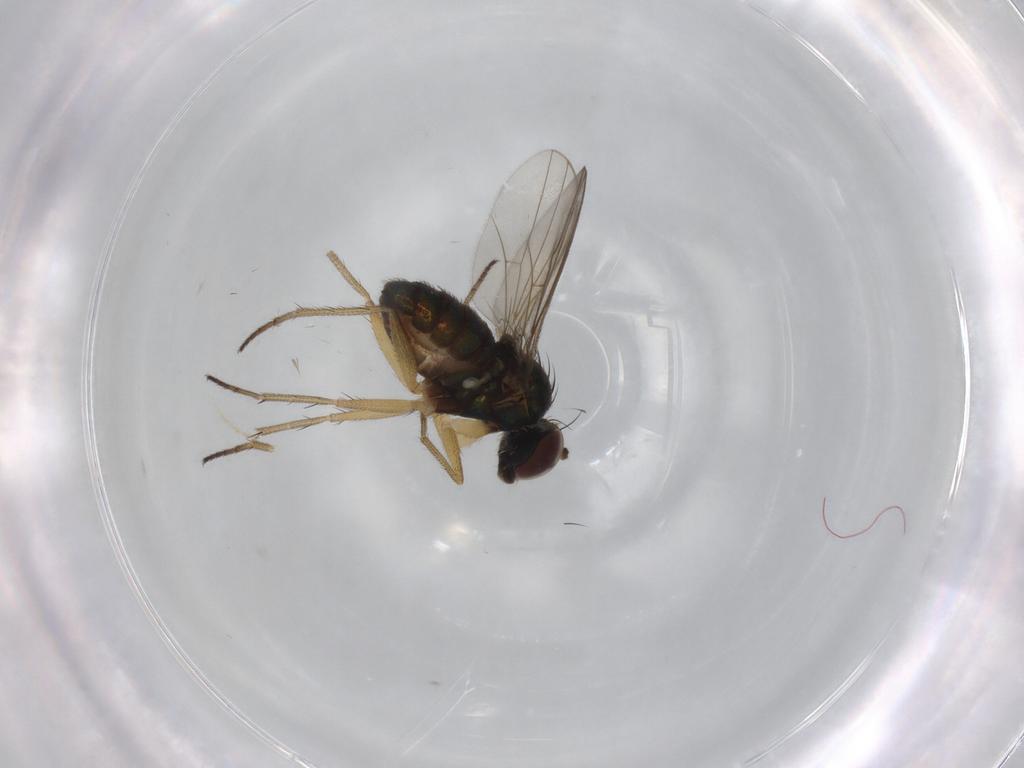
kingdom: Animalia
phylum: Arthropoda
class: Insecta
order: Diptera
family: Dolichopodidae
